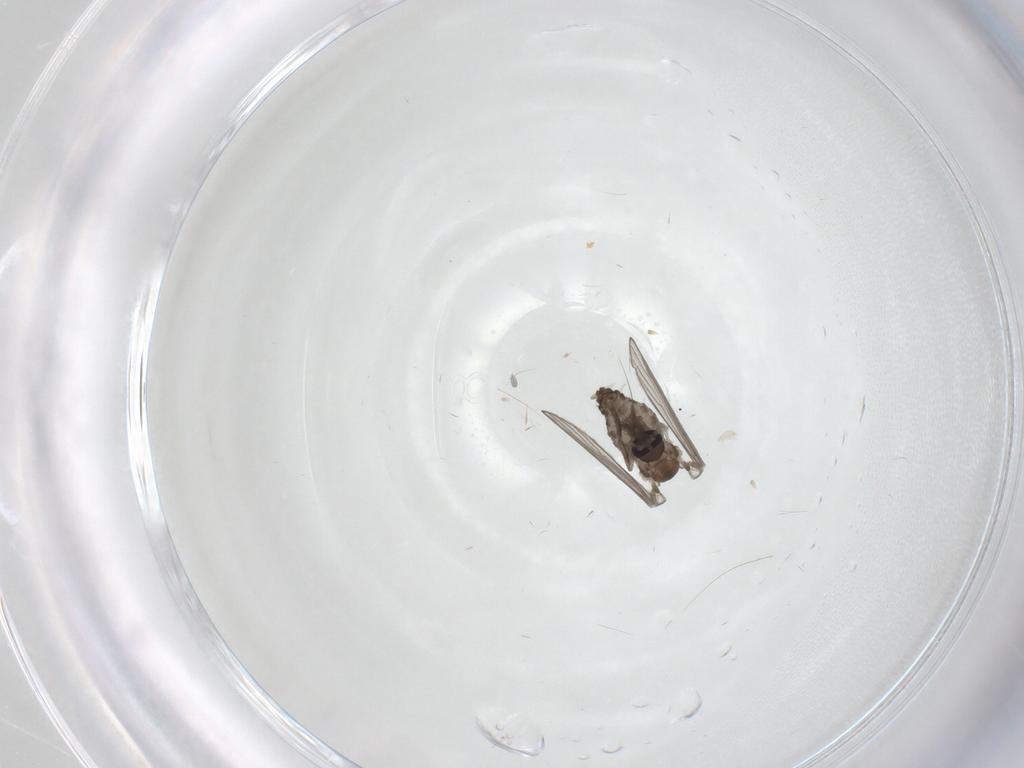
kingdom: Animalia
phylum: Arthropoda
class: Insecta
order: Diptera
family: Psychodidae
